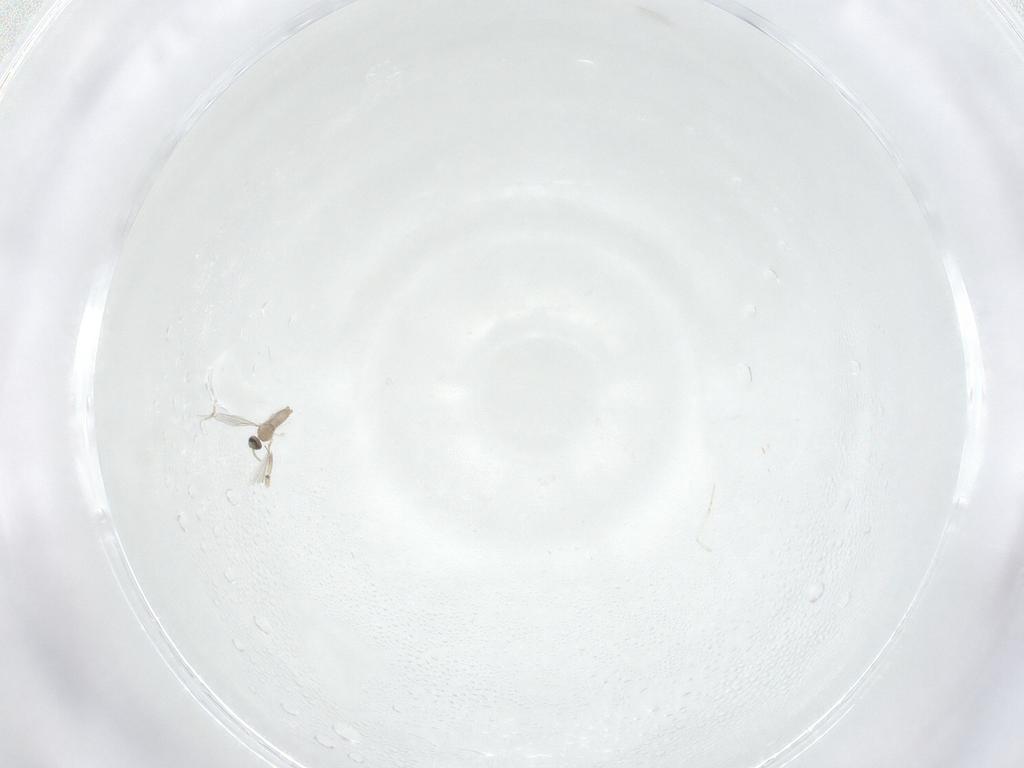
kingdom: Animalia
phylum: Arthropoda
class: Insecta
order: Diptera
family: Cecidomyiidae
